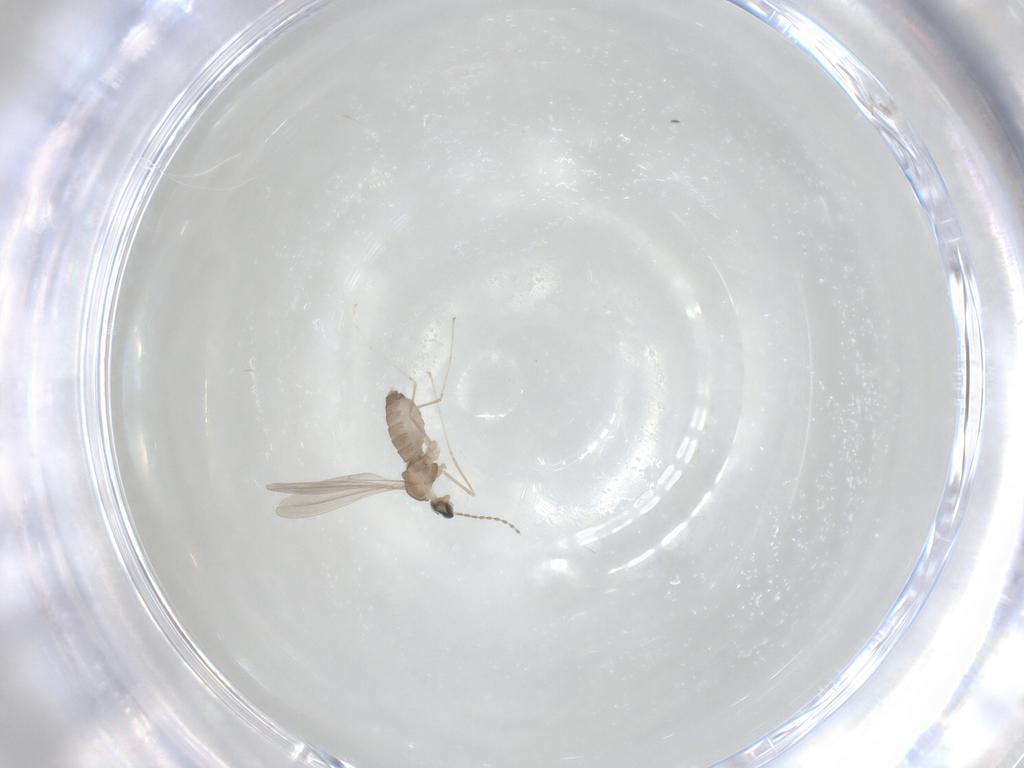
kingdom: Animalia
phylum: Arthropoda
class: Insecta
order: Diptera
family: Cecidomyiidae
